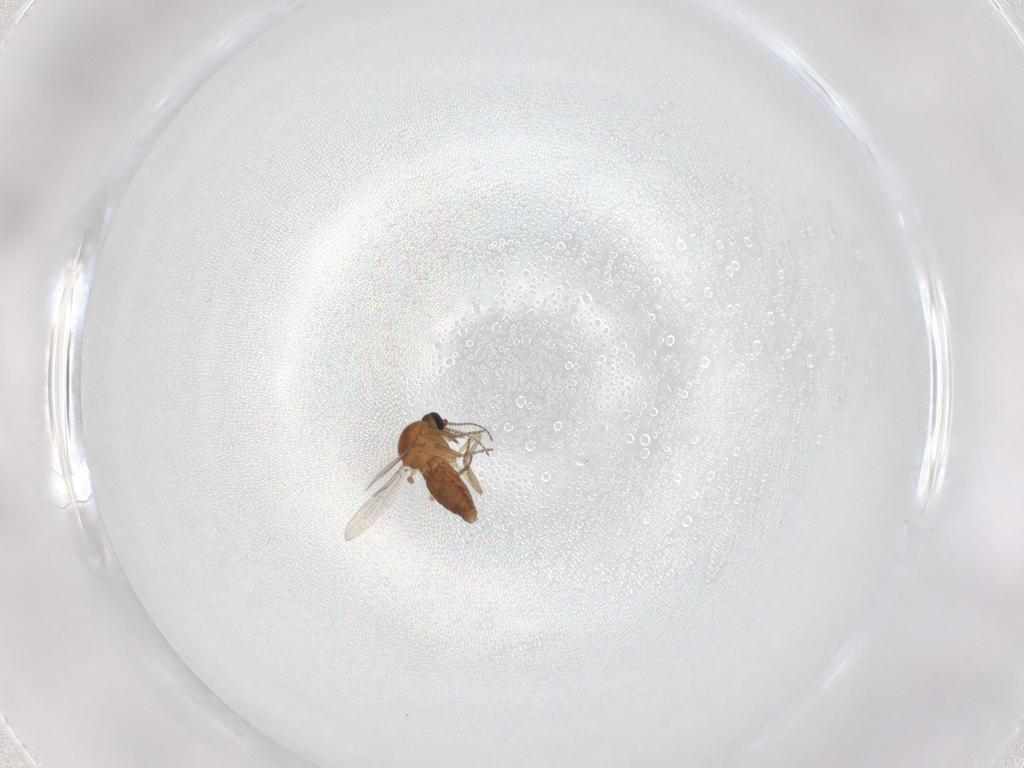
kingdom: Animalia
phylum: Arthropoda
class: Insecta
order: Diptera
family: Ceratopogonidae
